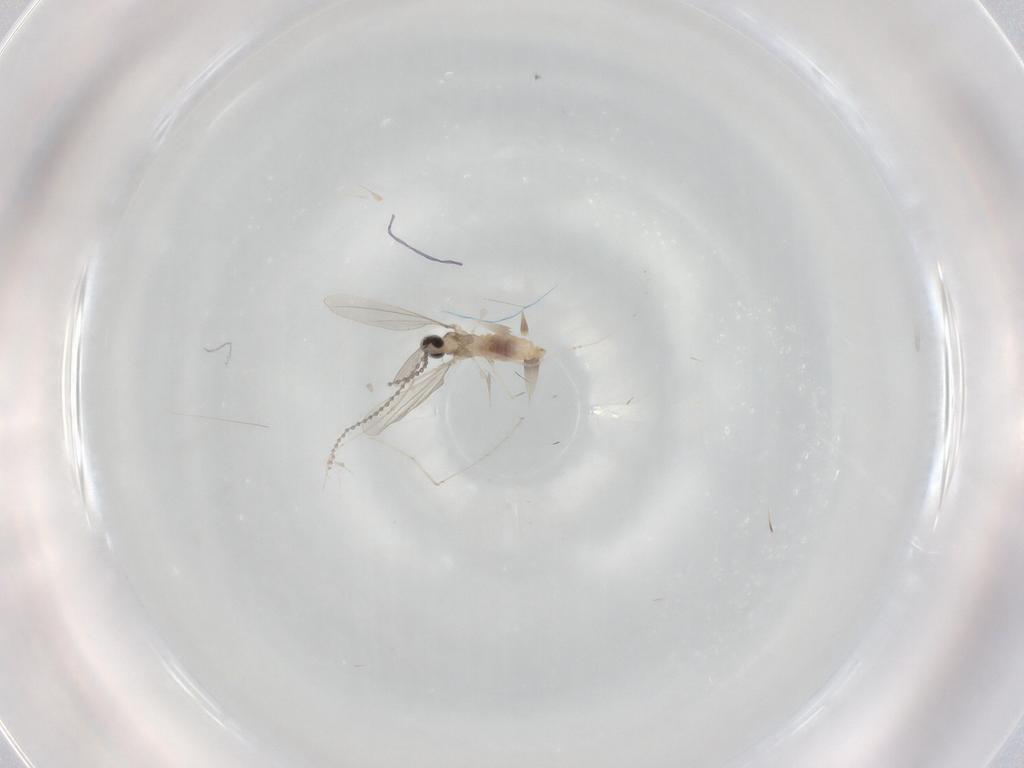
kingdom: Animalia
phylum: Arthropoda
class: Insecta
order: Diptera
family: Cecidomyiidae
